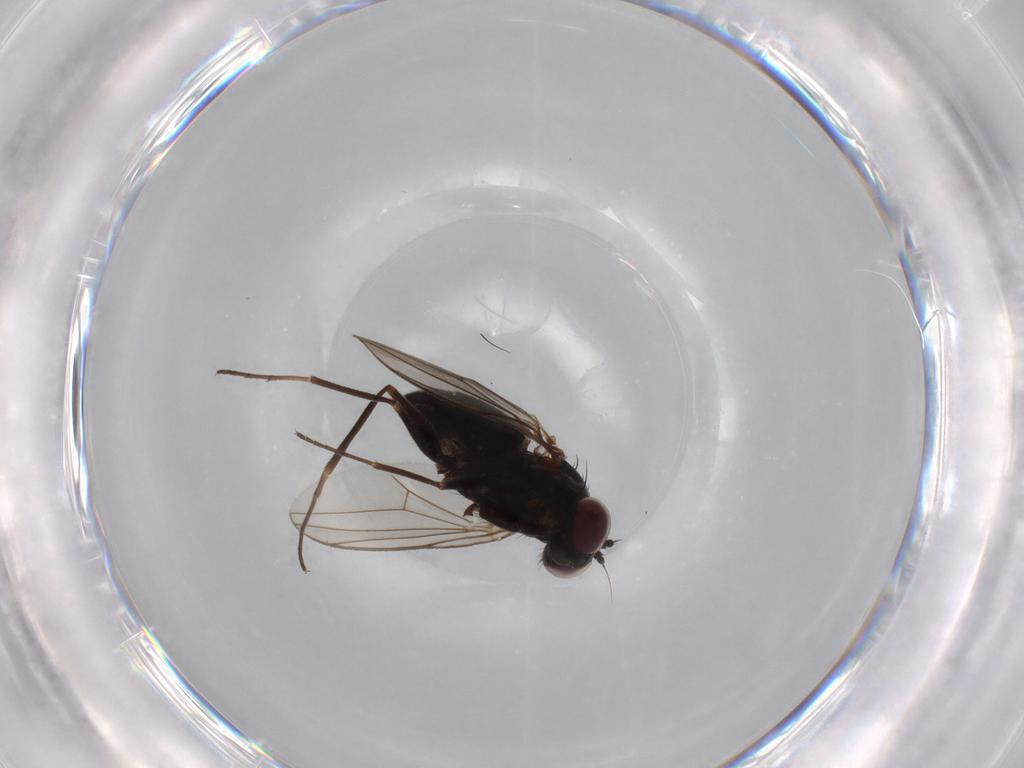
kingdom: Animalia
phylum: Arthropoda
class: Insecta
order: Diptera
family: Dolichopodidae
